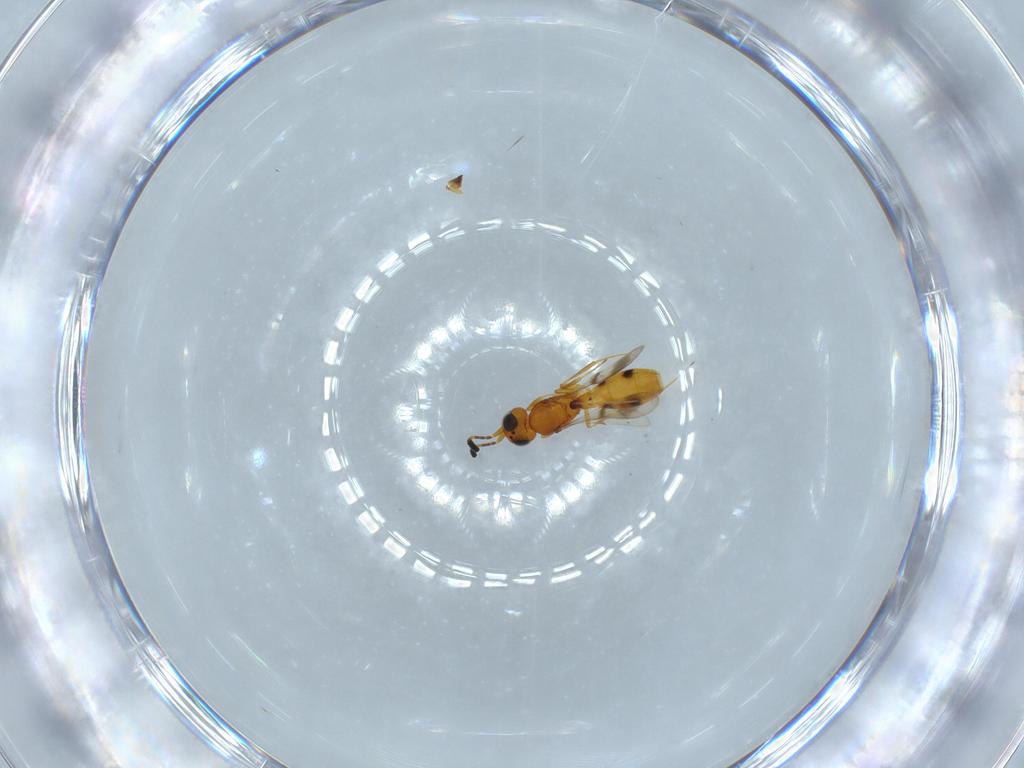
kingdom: Animalia
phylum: Arthropoda
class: Insecta
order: Hymenoptera
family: Scelionidae
